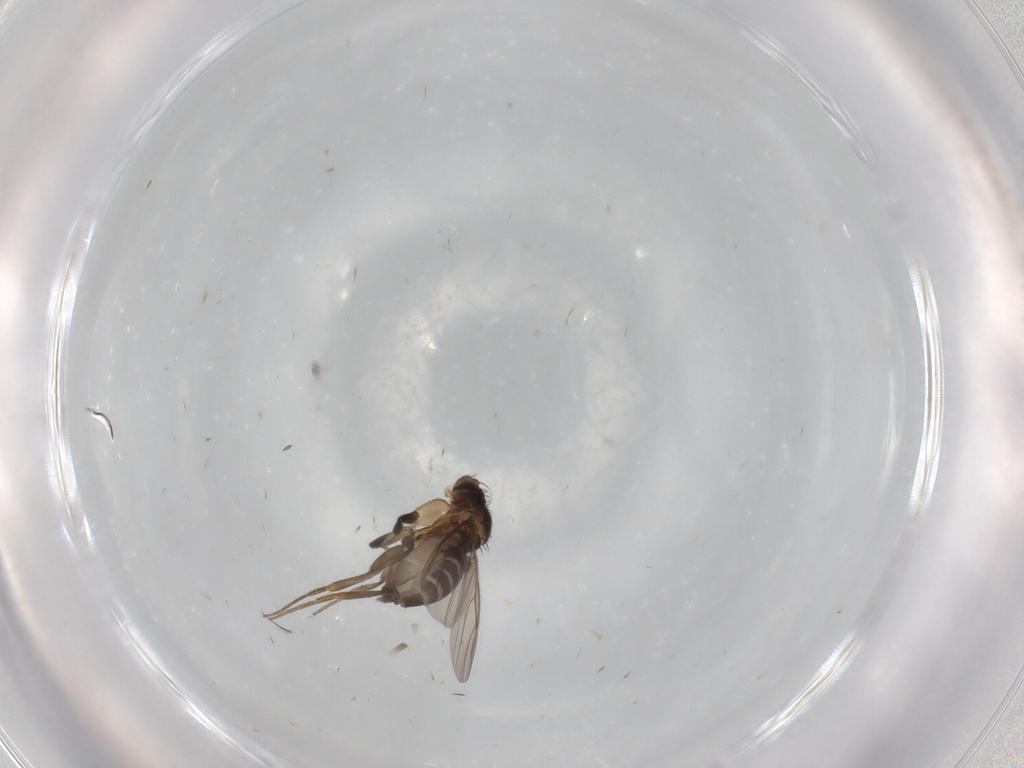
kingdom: Animalia
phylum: Arthropoda
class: Insecta
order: Diptera
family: Phoridae
